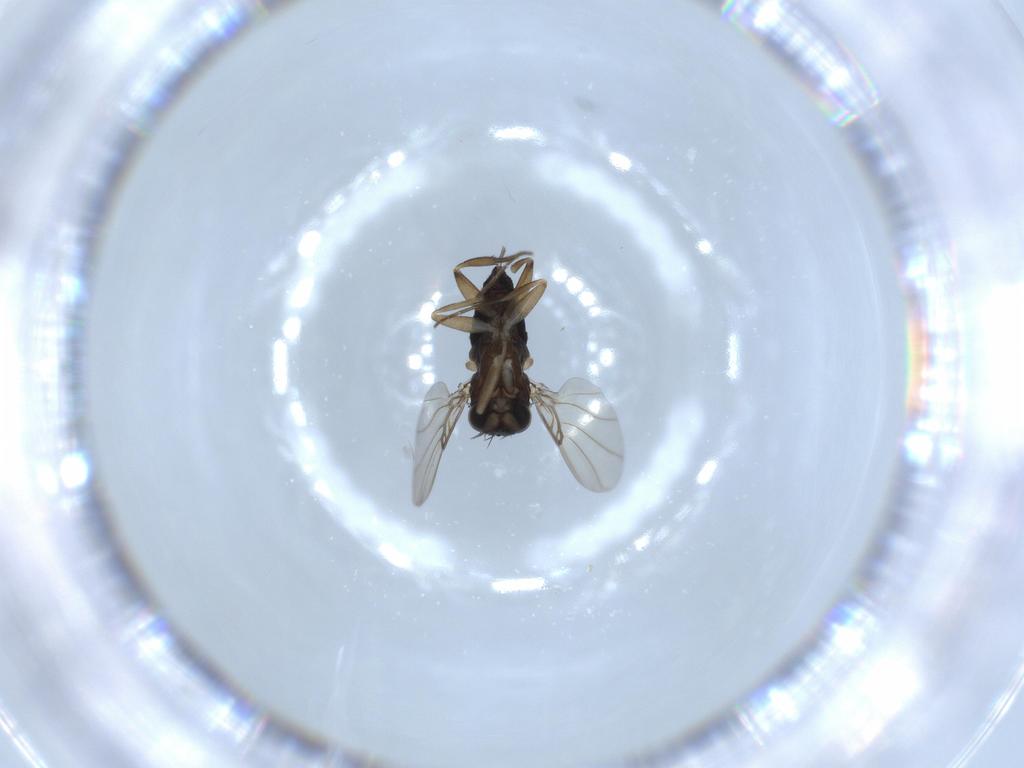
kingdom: Animalia
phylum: Arthropoda
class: Insecta
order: Diptera
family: Phoridae
